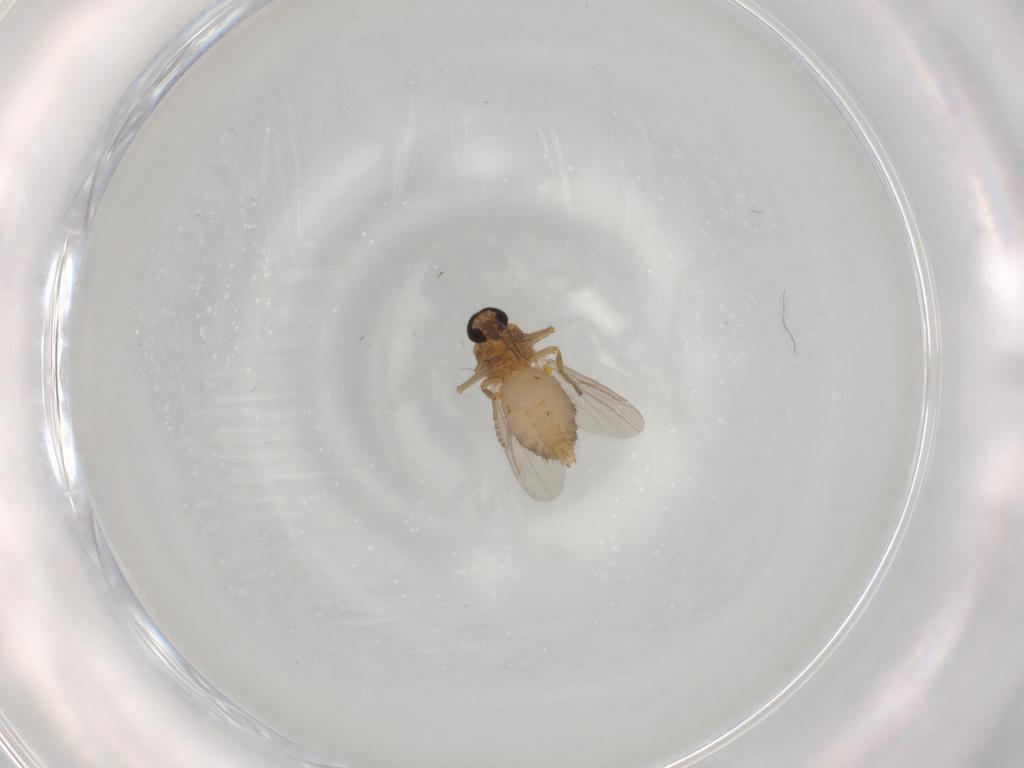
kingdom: Animalia
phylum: Arthropoda
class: Insecta
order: Diptera
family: Ceratopogonidae
